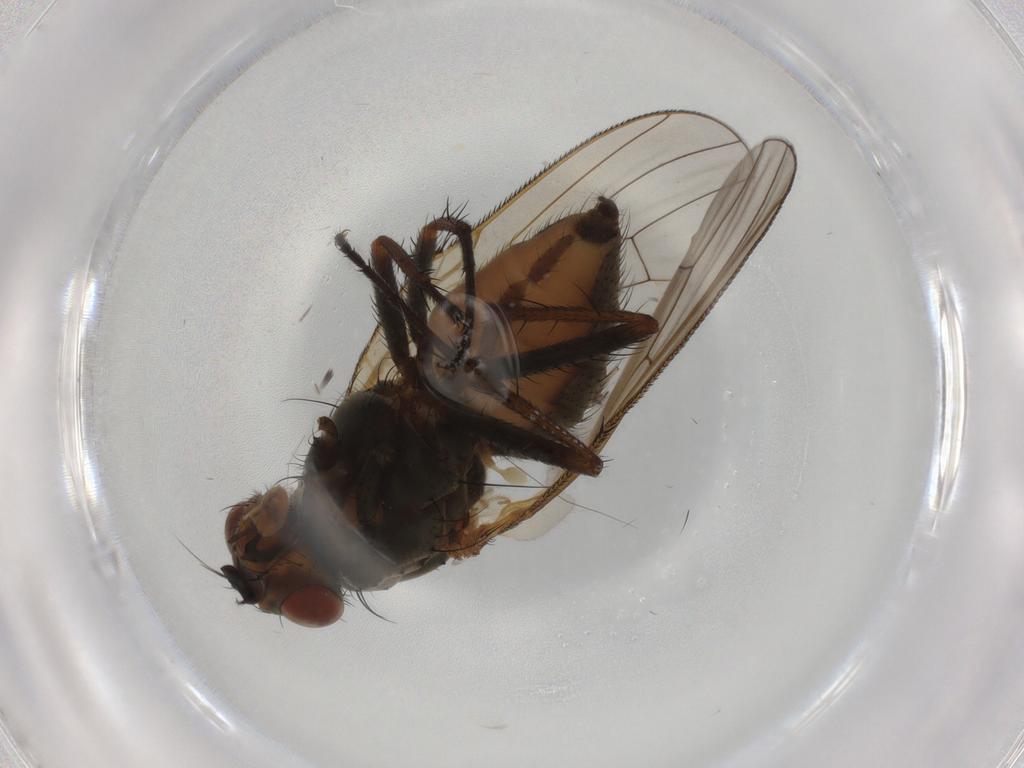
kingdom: Animalia
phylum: Arthropoda
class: Insecta
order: Diptera
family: Anthomyiidae
